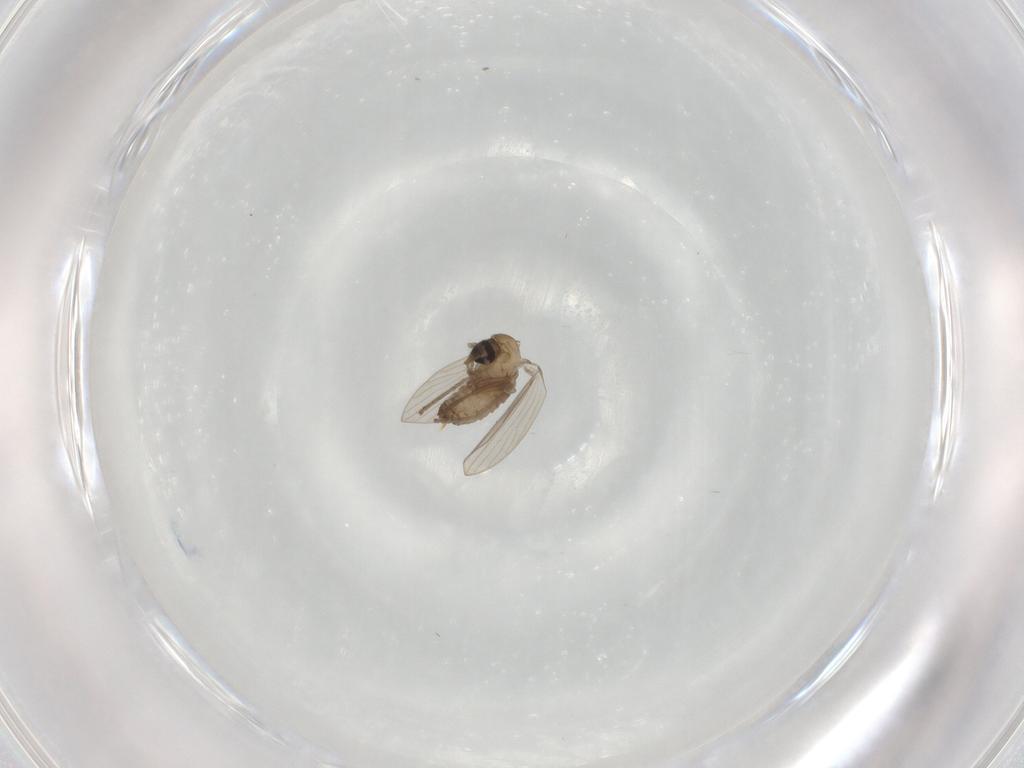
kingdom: Animalia
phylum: Arthropoda
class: Insecta
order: Diptera
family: Psychodidae
